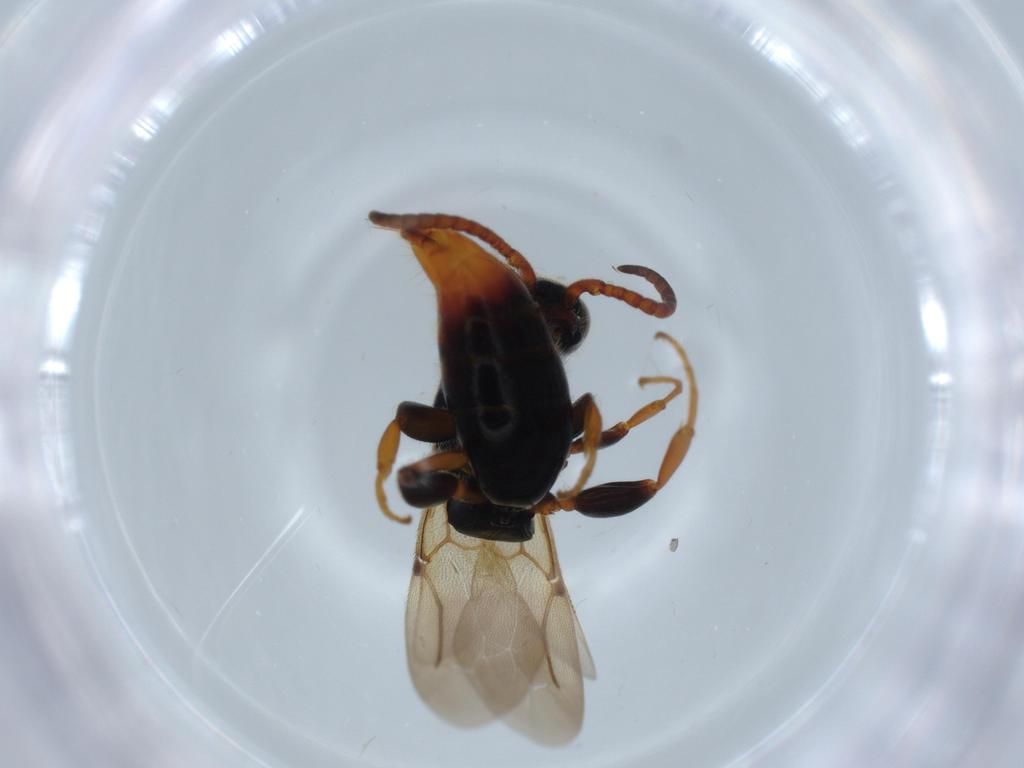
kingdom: Animalia
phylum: Arthropoda
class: Insecta
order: Hymenoptera
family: Bethylidae
